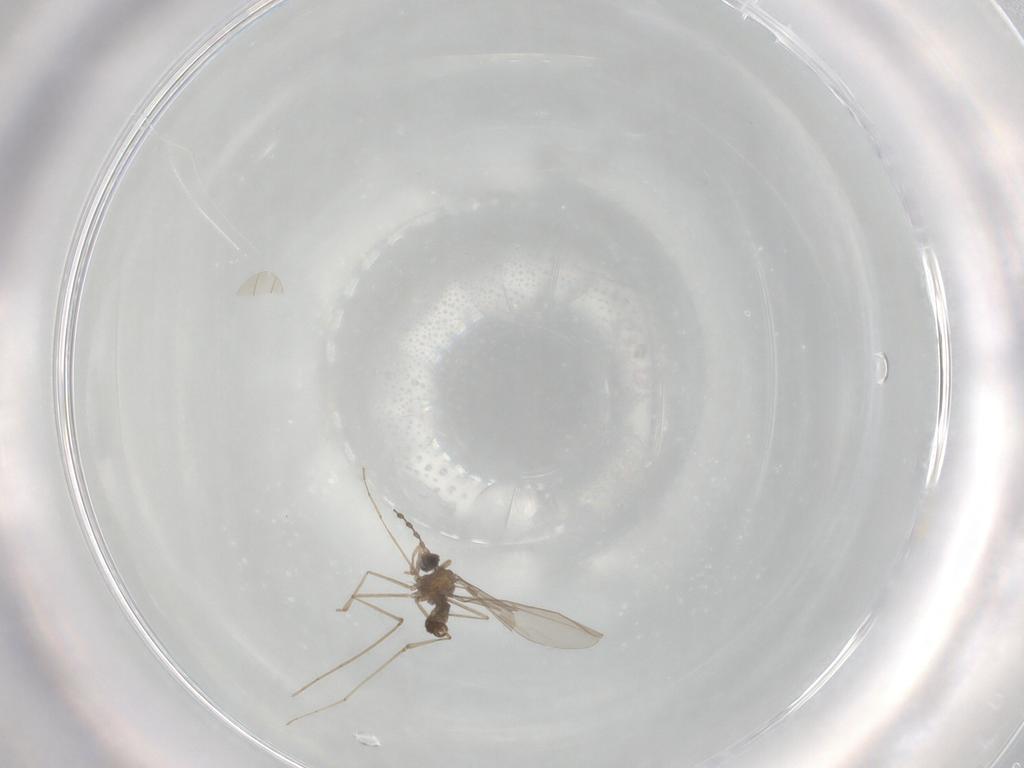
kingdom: Animalia
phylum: Arthropoda
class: Insecta
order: Diptera
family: Cecidomyiidae
